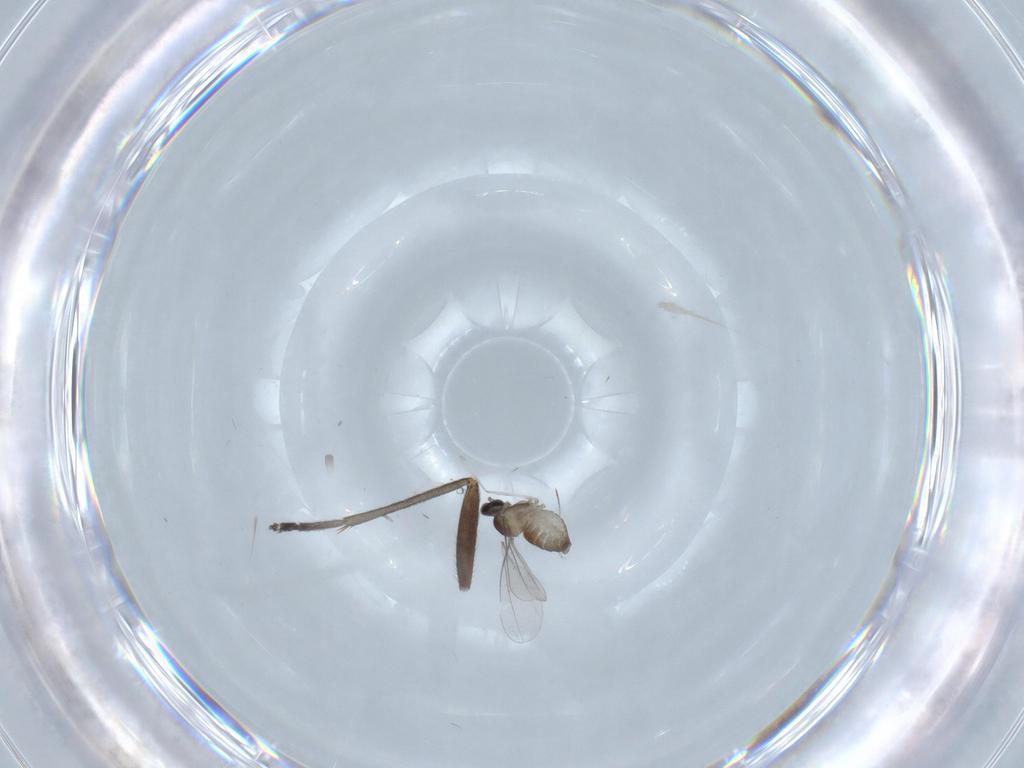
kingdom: Animalia
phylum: Arthropoda
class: Insecta
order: Diptera
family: Cecidomyiidae
